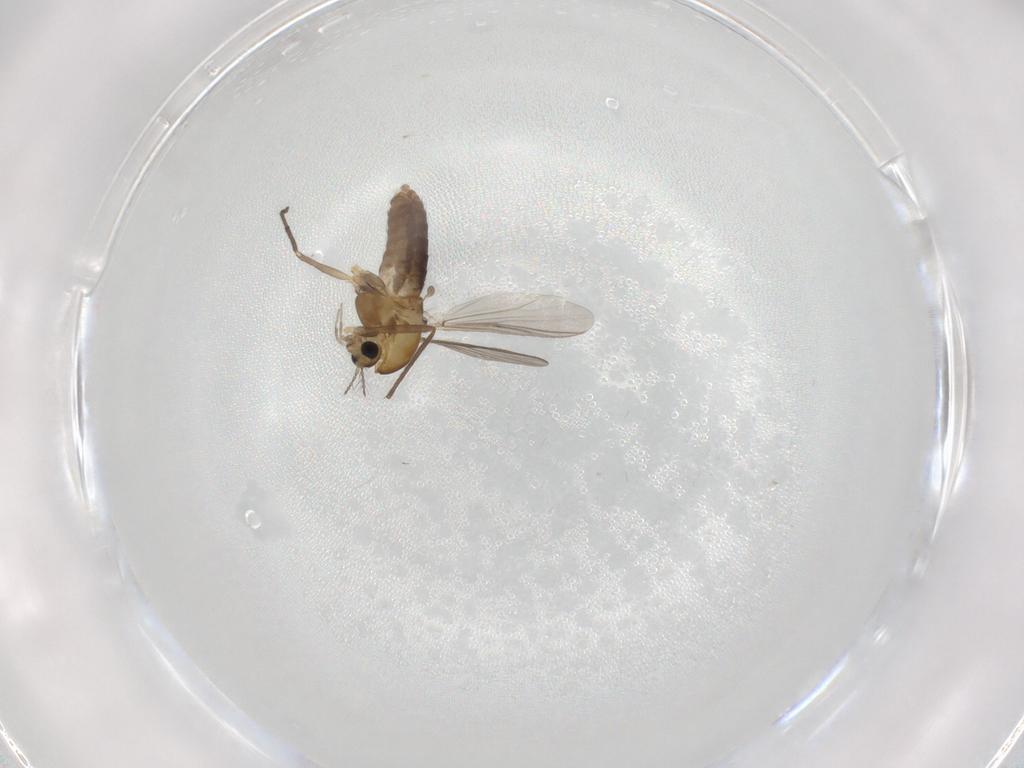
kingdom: Animalia
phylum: Arthropoda
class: Insecta
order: Diptera
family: Chironomidae
